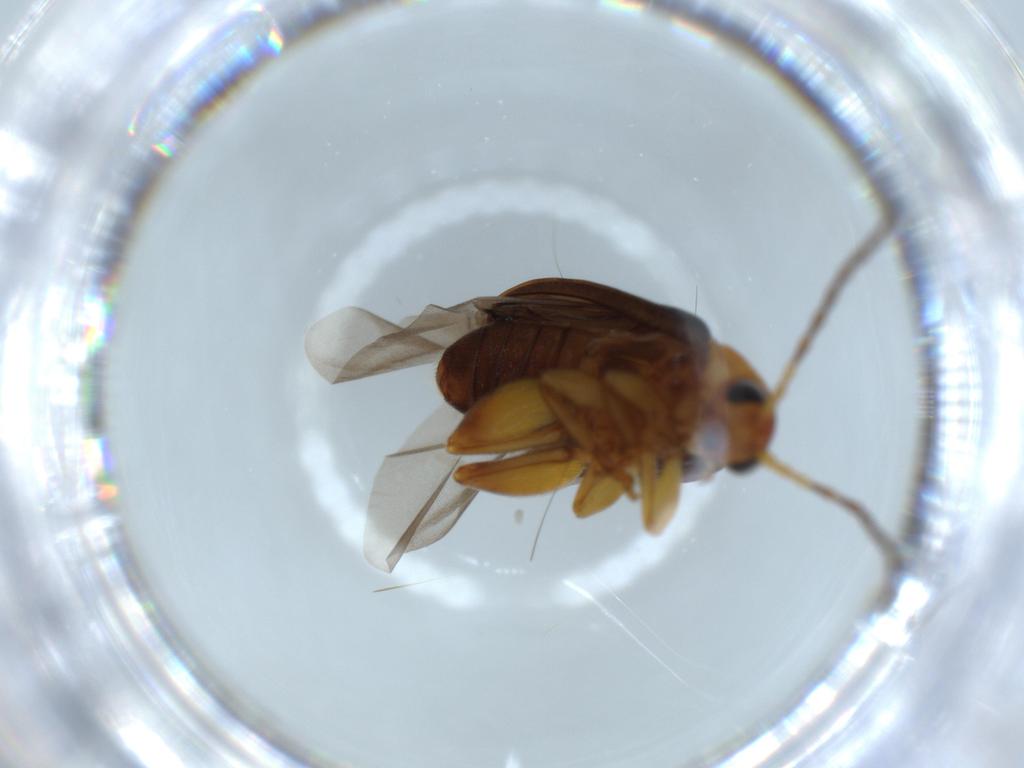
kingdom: Animalia
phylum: Arthropoda
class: Insecta
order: Coleoptera
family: Chrysomelidae
